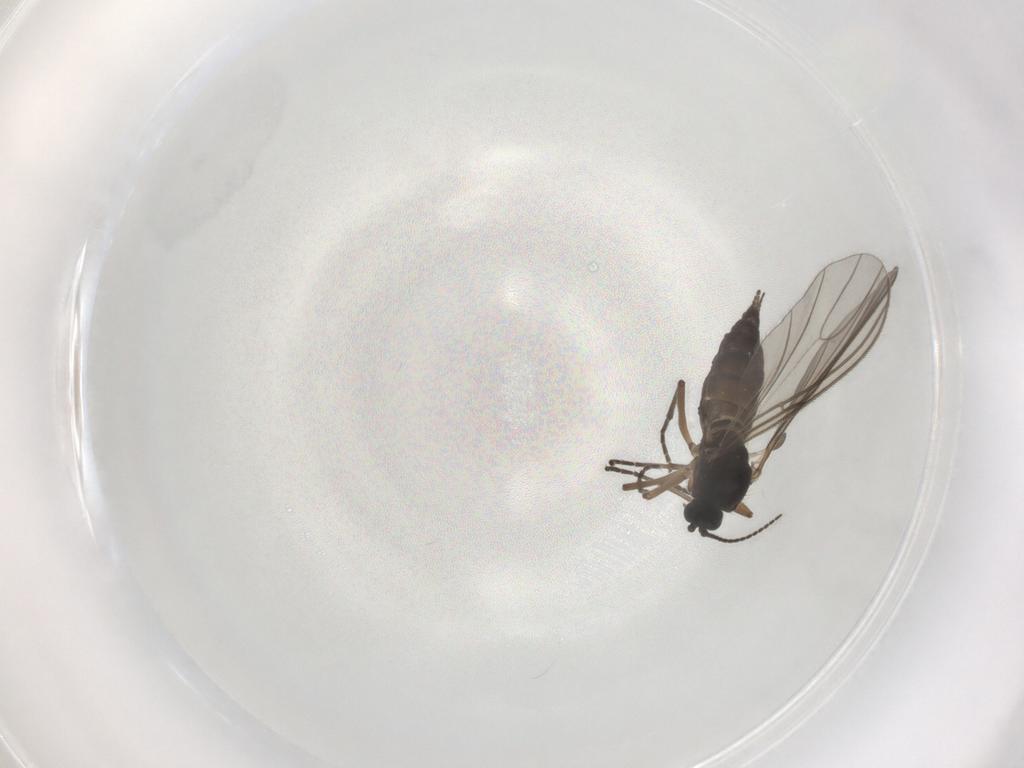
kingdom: Animalia
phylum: Arthropoda
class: Insecta
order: Diptera
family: Sciaridae
